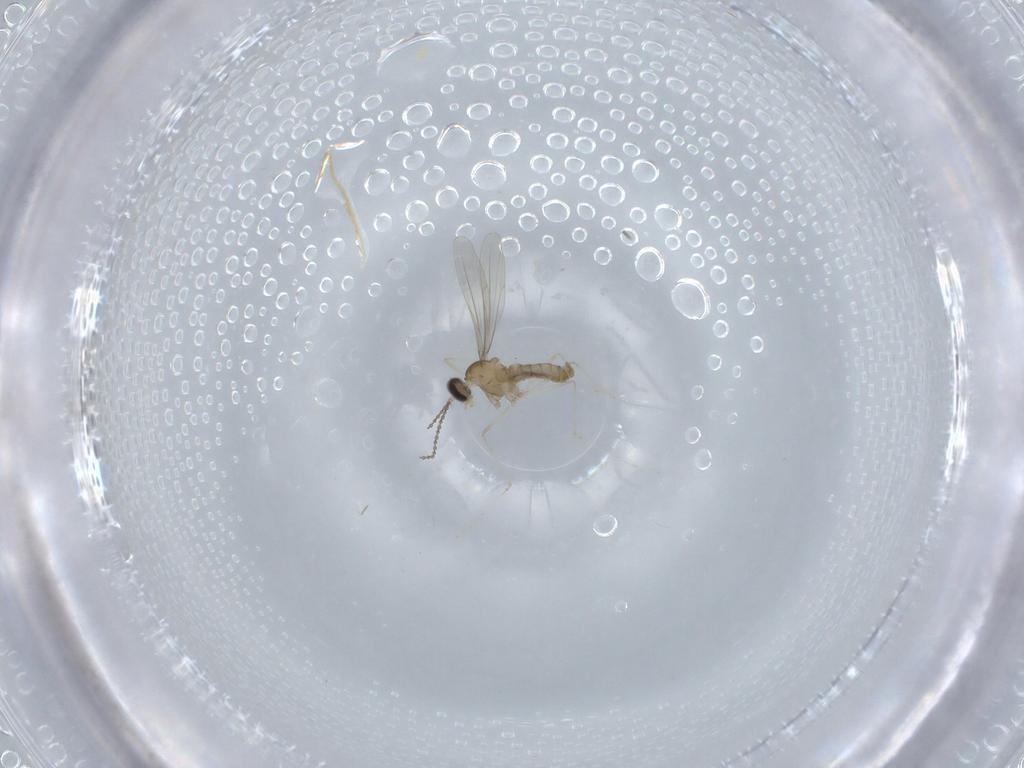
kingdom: Animalia
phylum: Arthropoda
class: Insecta
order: Diptera
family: Cecidomyiidae
